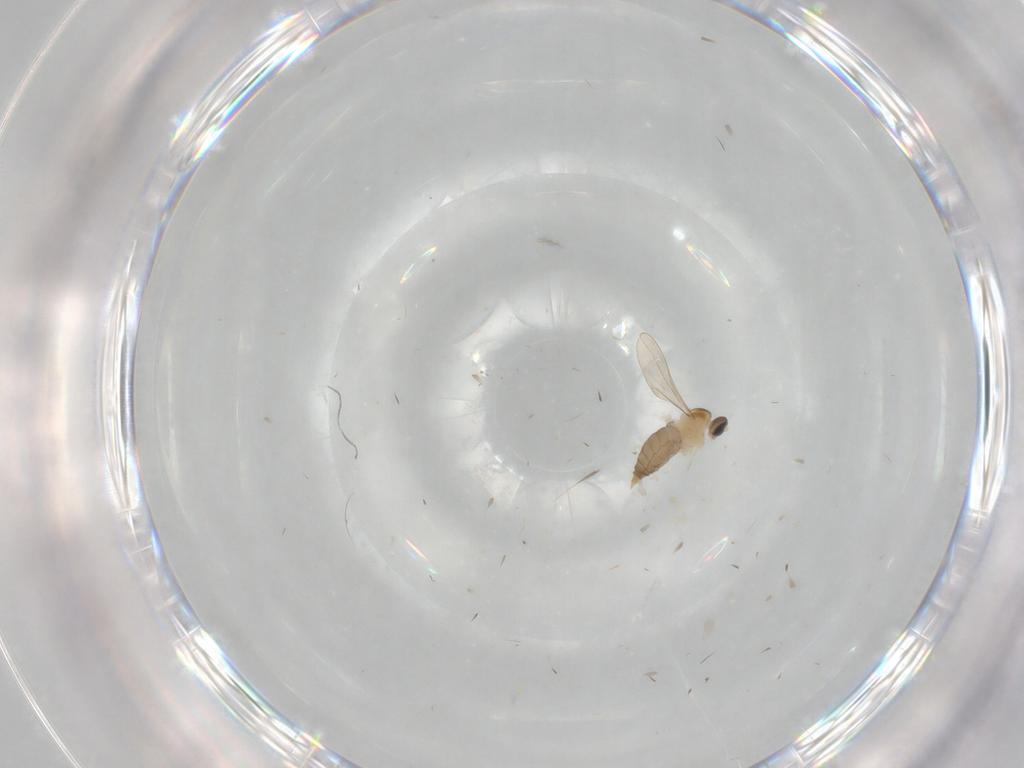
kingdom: Animalia
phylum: Arthropoda
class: Insecta
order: Diptera
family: Cecidomyiidae
